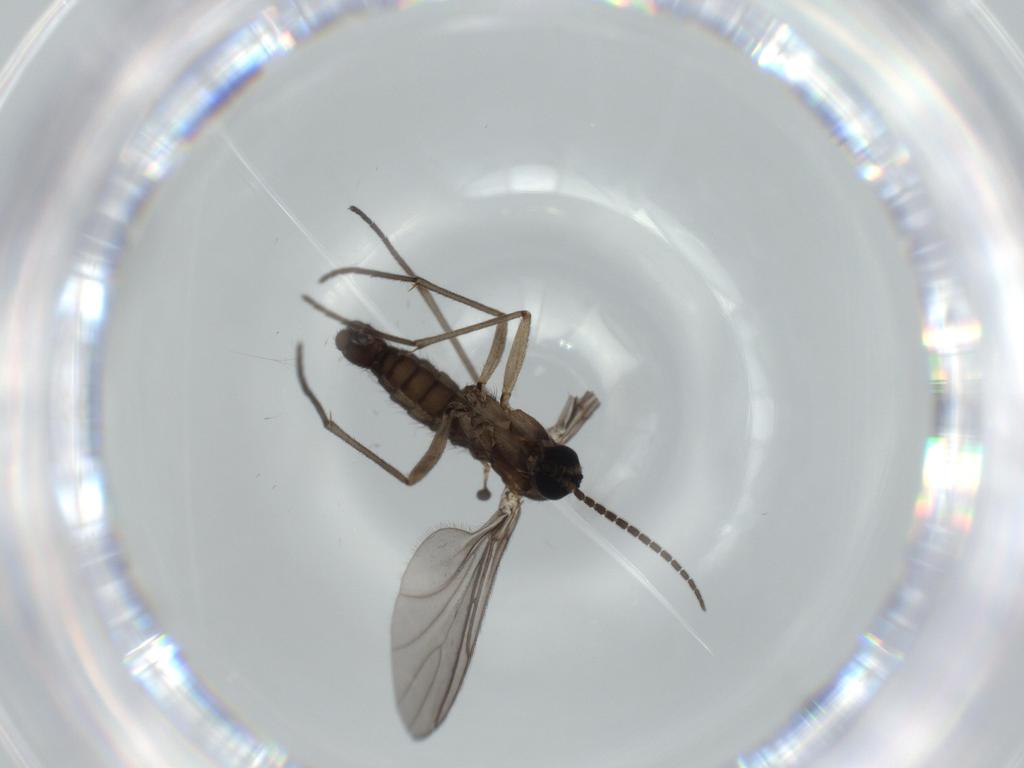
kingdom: Animalia
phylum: Arthropoda
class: Insecta
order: Diptera
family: Sciaridae
